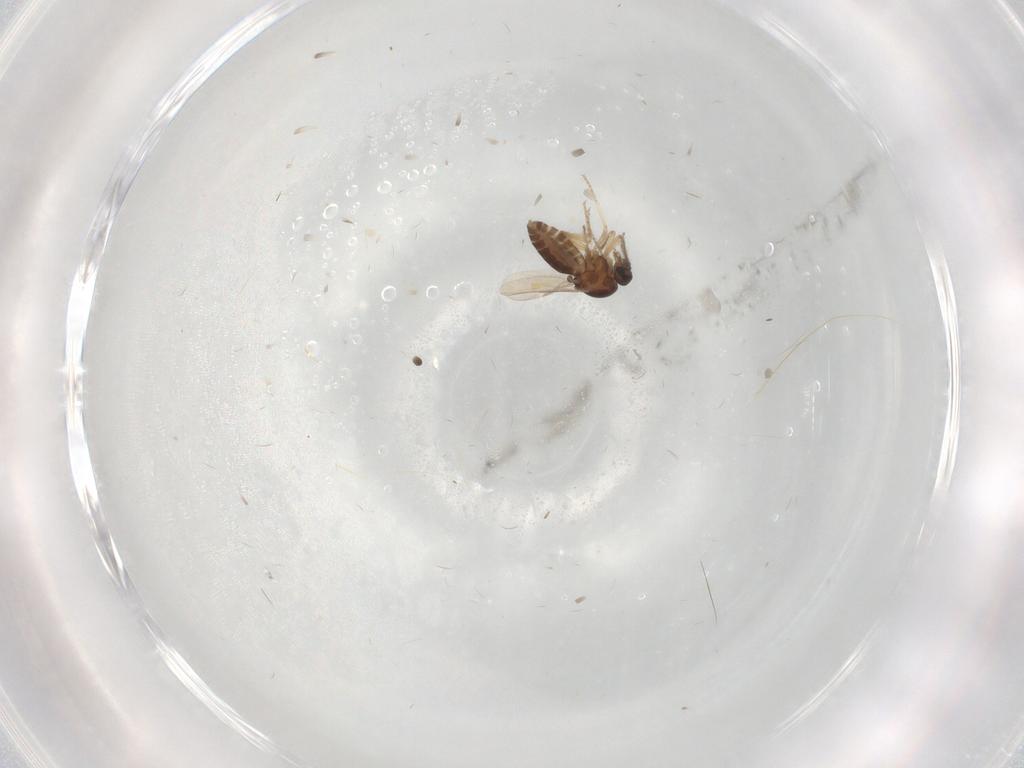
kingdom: Animalia
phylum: Arthropoda
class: Insecta
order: Diptera
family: Ceratopogonidae
